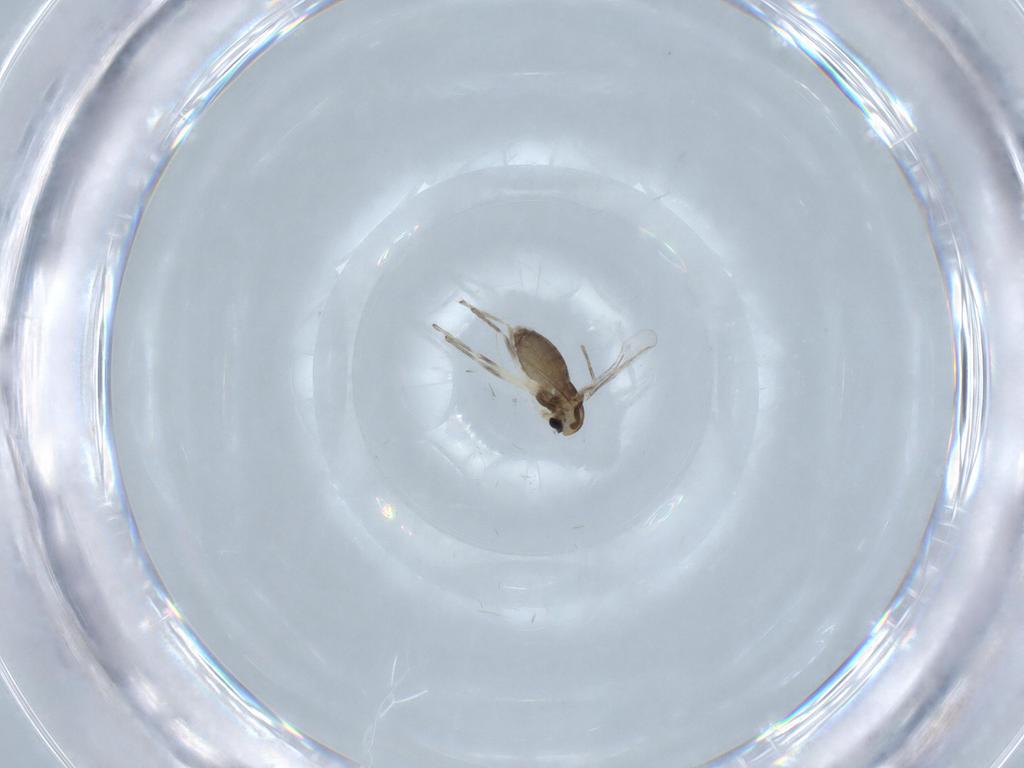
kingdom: Animalia
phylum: Arthropoda
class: Insecta
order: Diptera
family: Chironomidae
